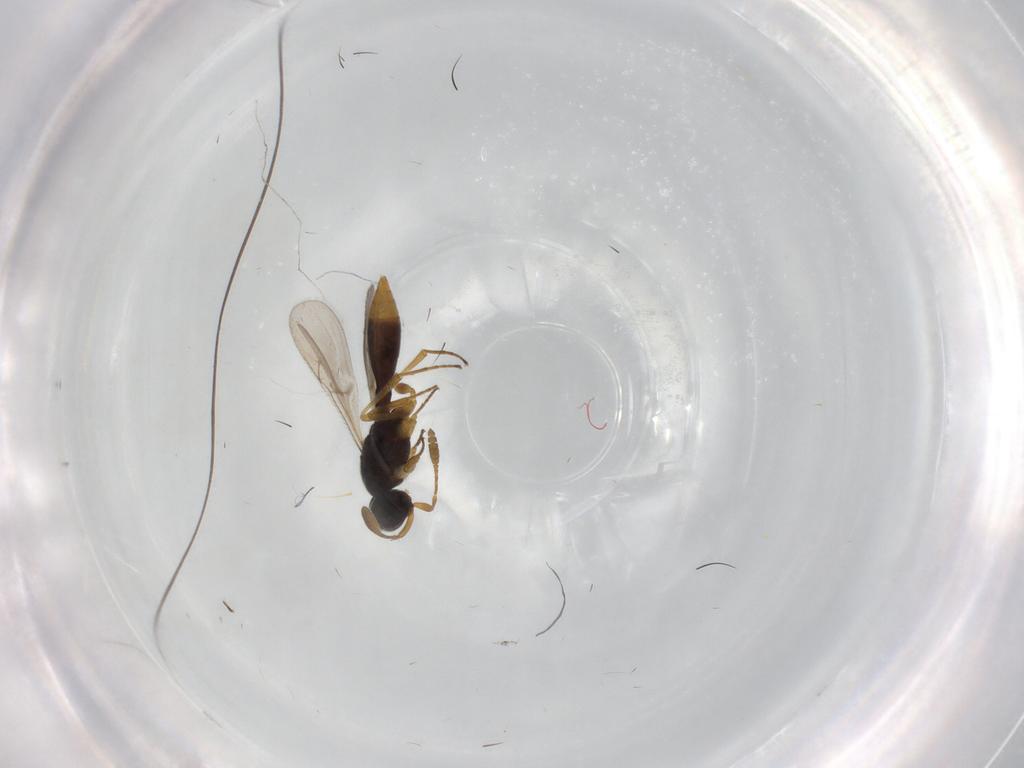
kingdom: Animalia
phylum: Arthropoda
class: Insecta
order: Hymenoptera
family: Scelionidae
